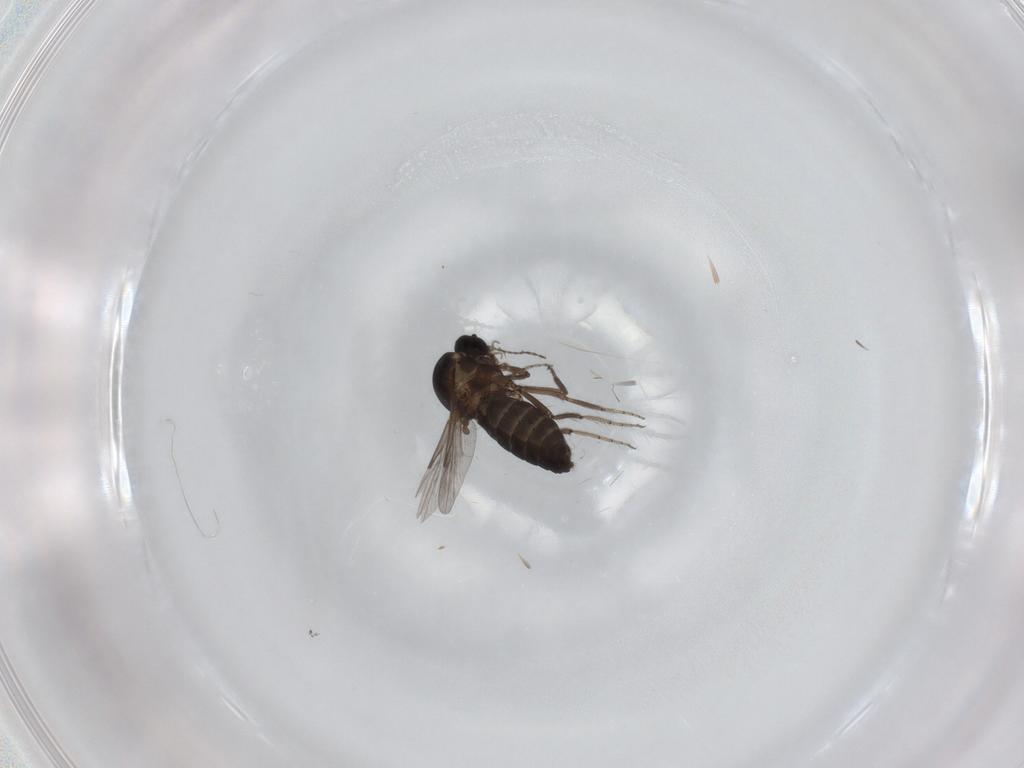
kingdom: Animalia
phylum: Arthropoda
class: Insecta
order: Diptera
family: Ceratopogonidae
